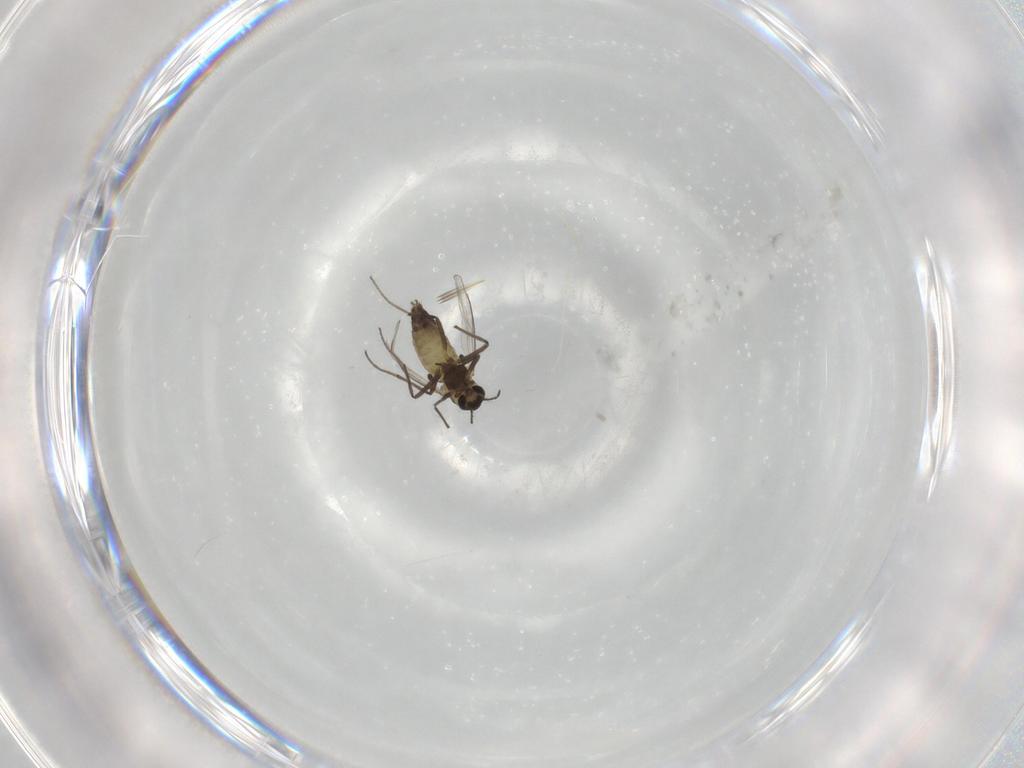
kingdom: Animalia
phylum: Arthropoda
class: Insecta
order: Diptera
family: Chironomidae
